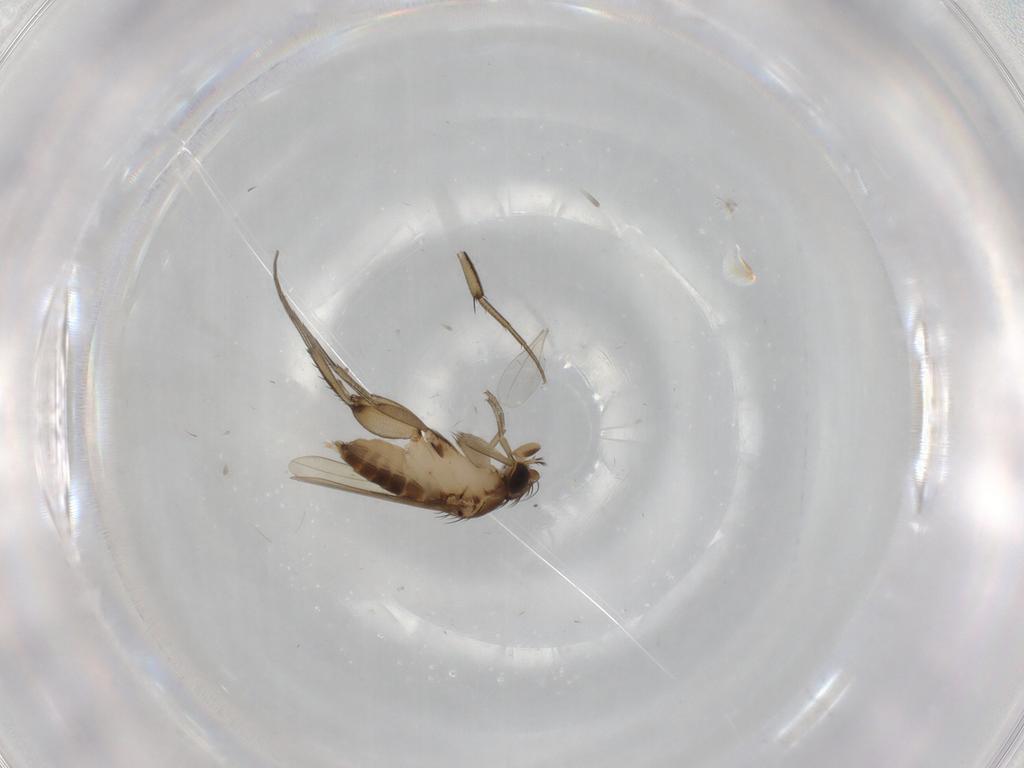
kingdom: Animalia
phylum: Arthropoda
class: Insecta
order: Diptera
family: Phoridae
